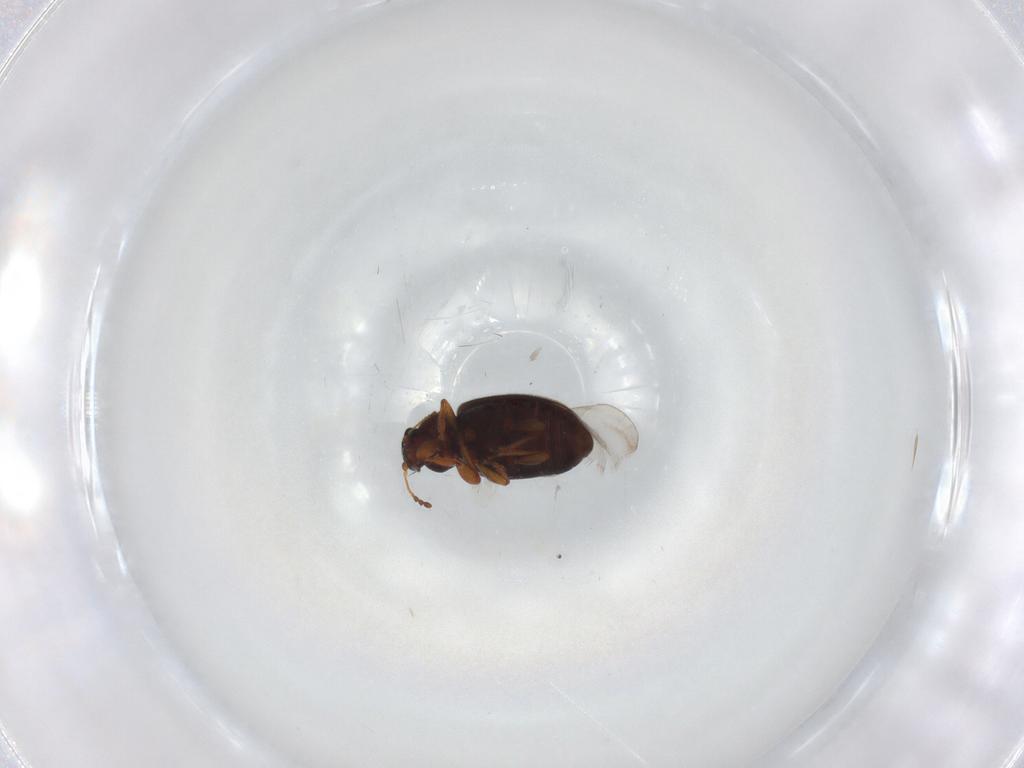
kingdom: Animalia
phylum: Arthropoda
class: Insecta
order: Coleoptera
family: Latridiidae
